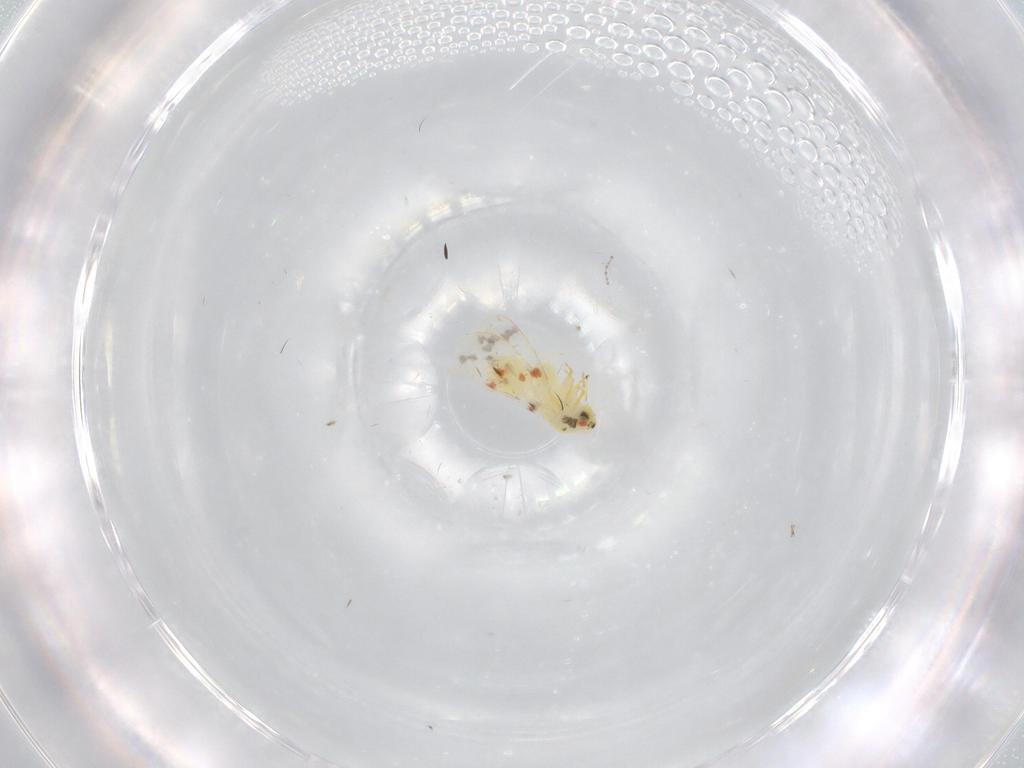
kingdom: Animalia
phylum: Arthropoda
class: Insecta
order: Hemiptera
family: Aleyrodidae
